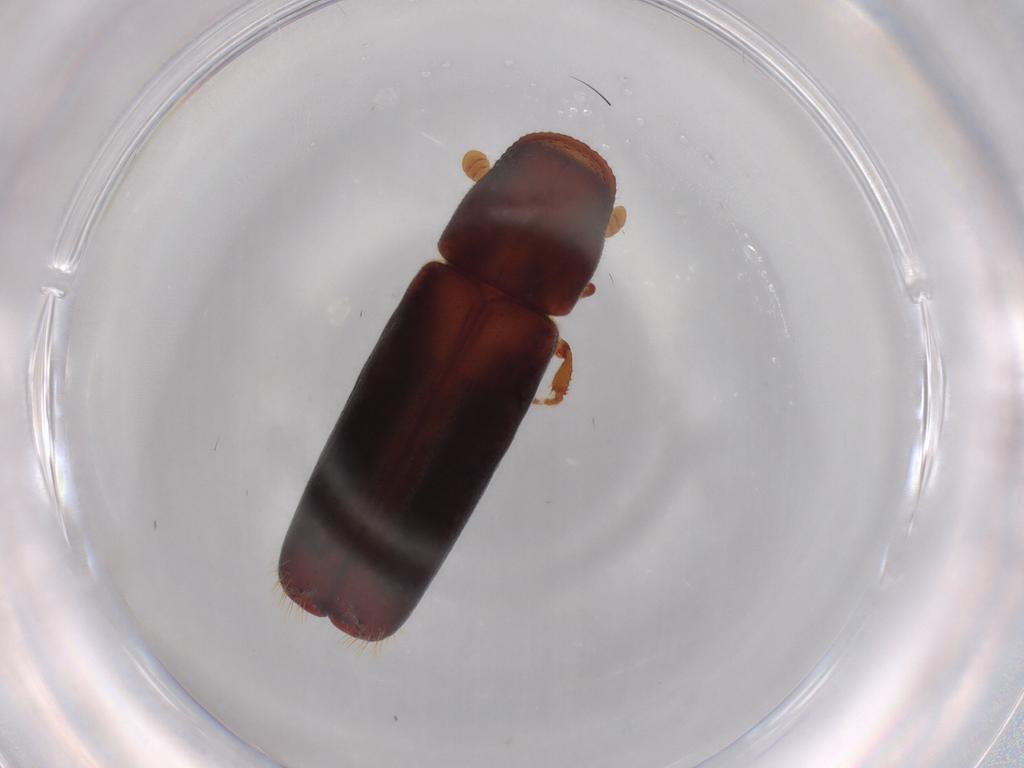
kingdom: Animalia
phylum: Arthropoda
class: Insecta
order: Coleoptera
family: Curculionidae
